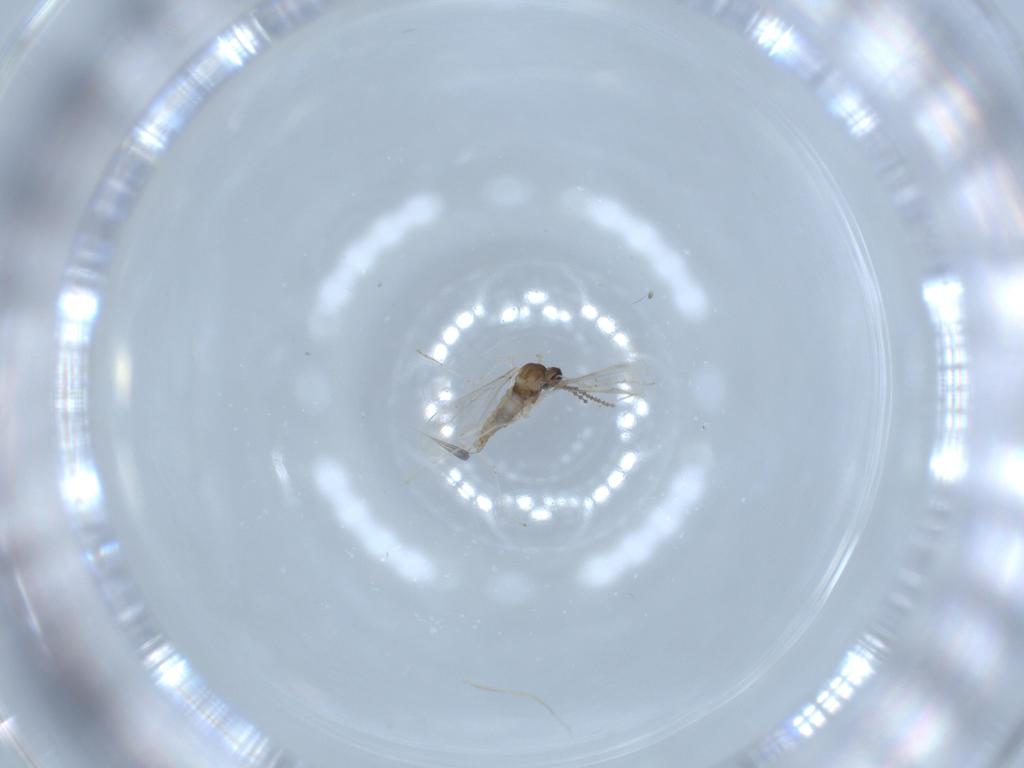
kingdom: Animalia
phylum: Arthropoda
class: Insecta
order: Diptera
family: Cecidomyiidae
